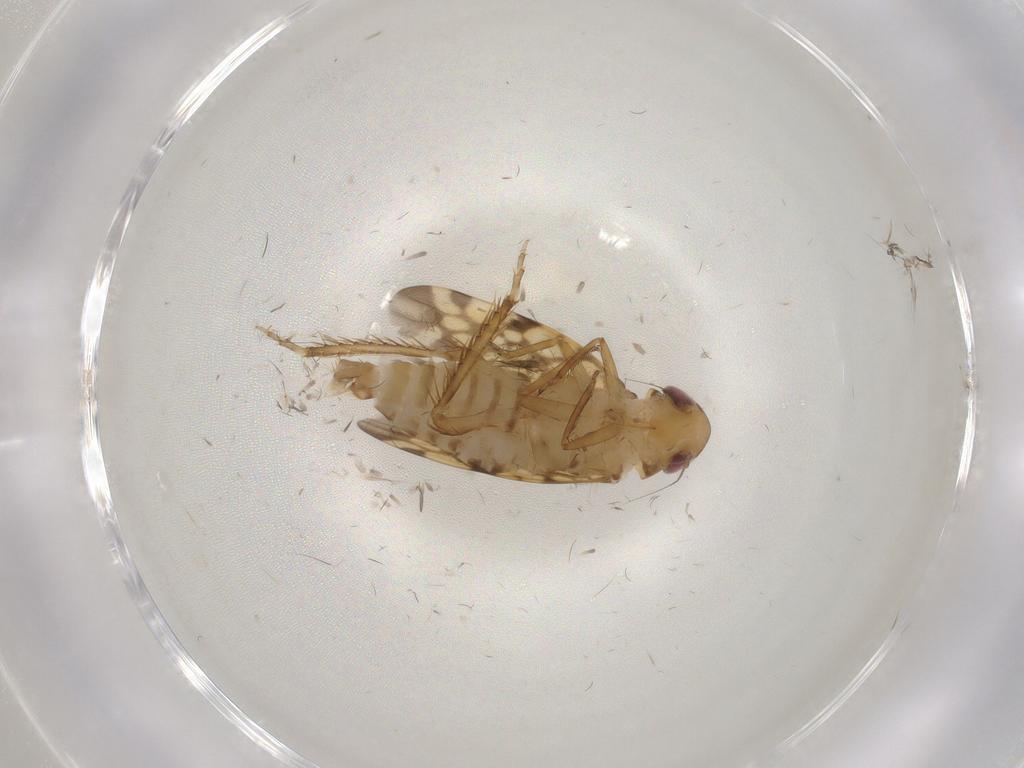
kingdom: Animalia
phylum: Arthropoda
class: Insecta
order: Hemiptera
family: Cicadellidae
